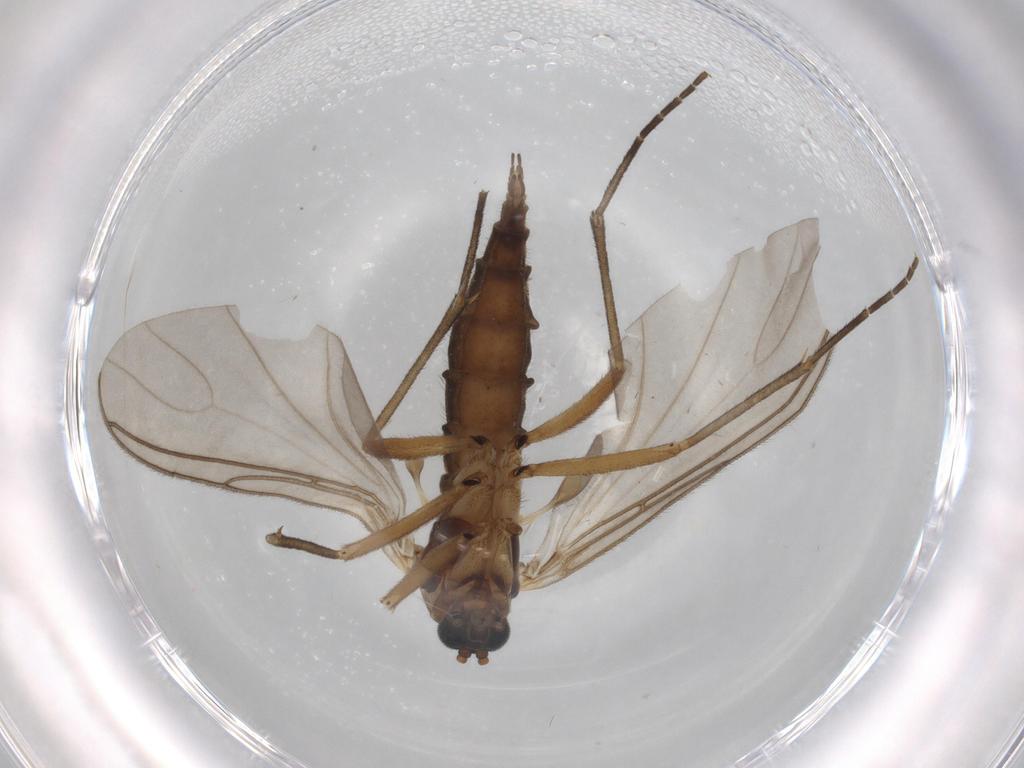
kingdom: Animalia
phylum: Arthropoda
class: Insecta
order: Diptera
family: Sciaridae
